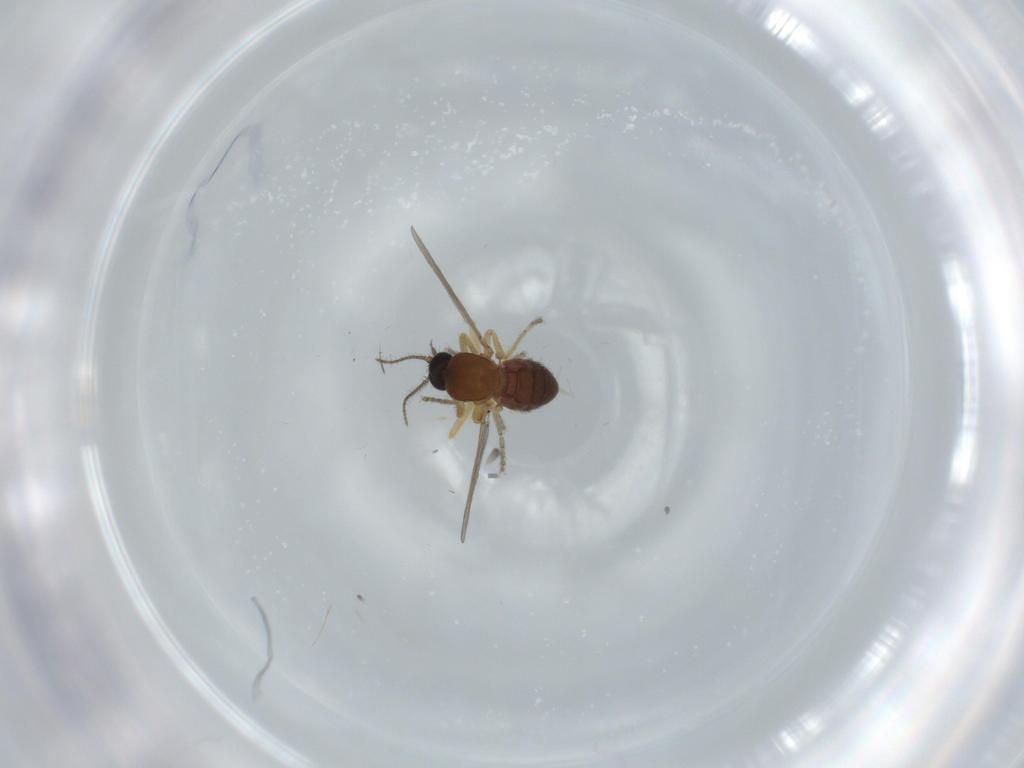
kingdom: Animalia
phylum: Arthropoda
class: Insecta
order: Diptera
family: Ceratopogonidae
